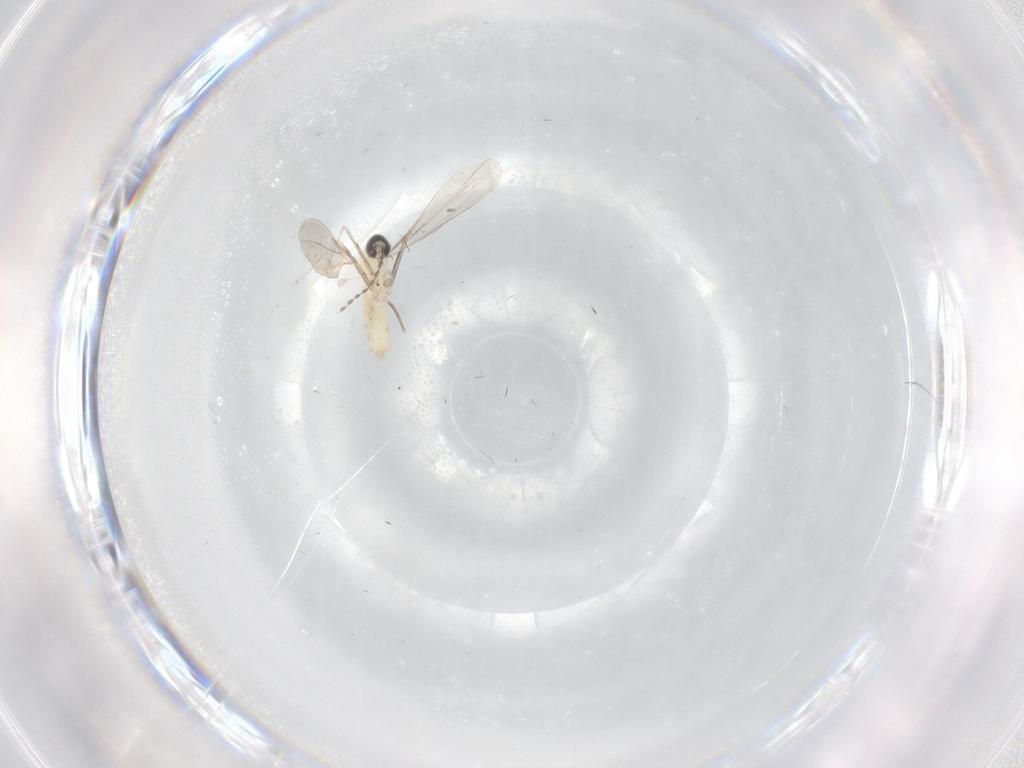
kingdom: Animalia
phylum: Arthropoda
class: Insecta
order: Diptera
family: Cecidomyiidae
